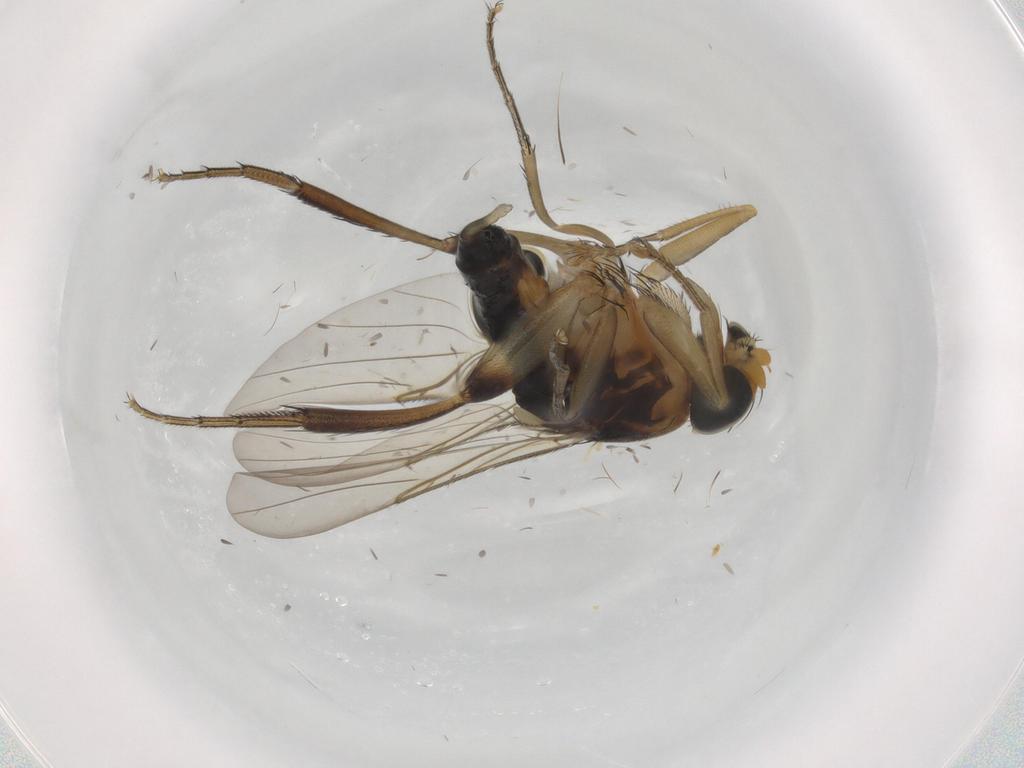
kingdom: Animalia
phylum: Arthropoda
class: Insecta
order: Diptera
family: Phoridae
